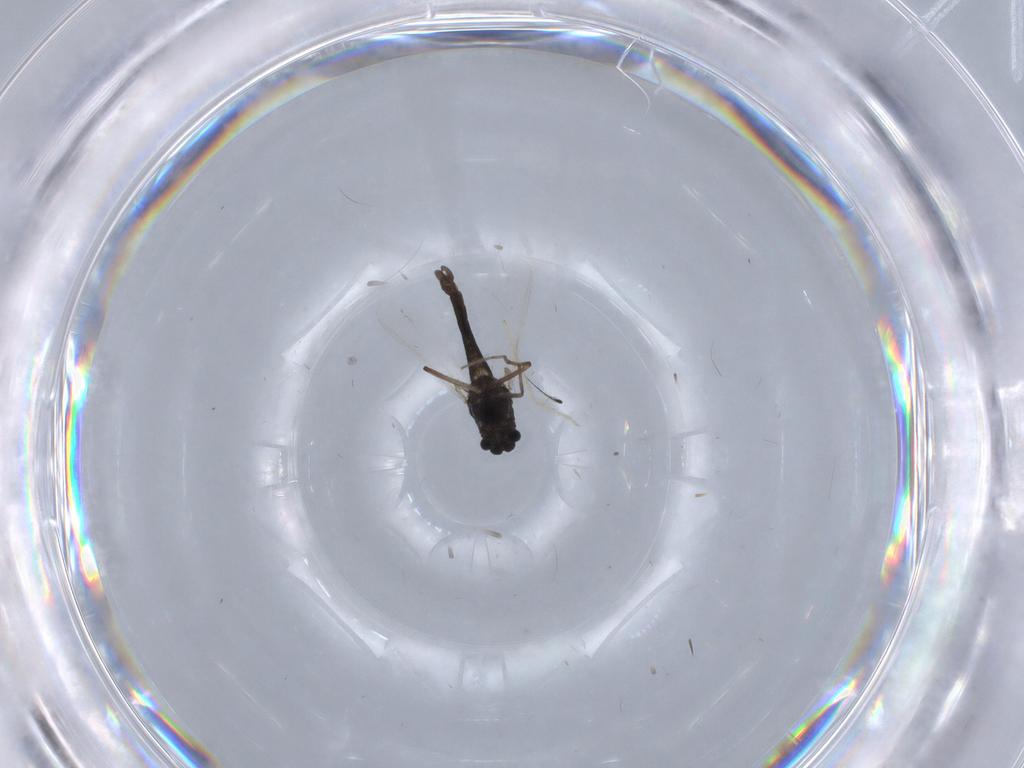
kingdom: Animalia
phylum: Arthropoda
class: Insecta
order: Diptera
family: Chironomidae
